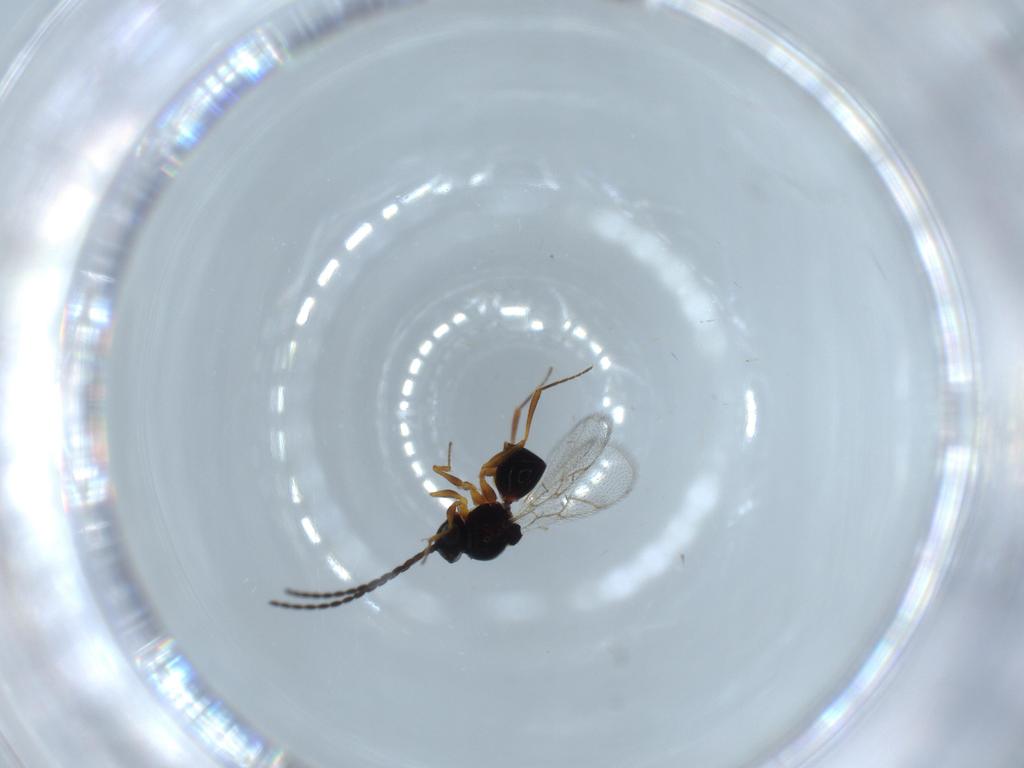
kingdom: Animalia
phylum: Arthropoda
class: Insecta
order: Hymenoptera
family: Figitidae
